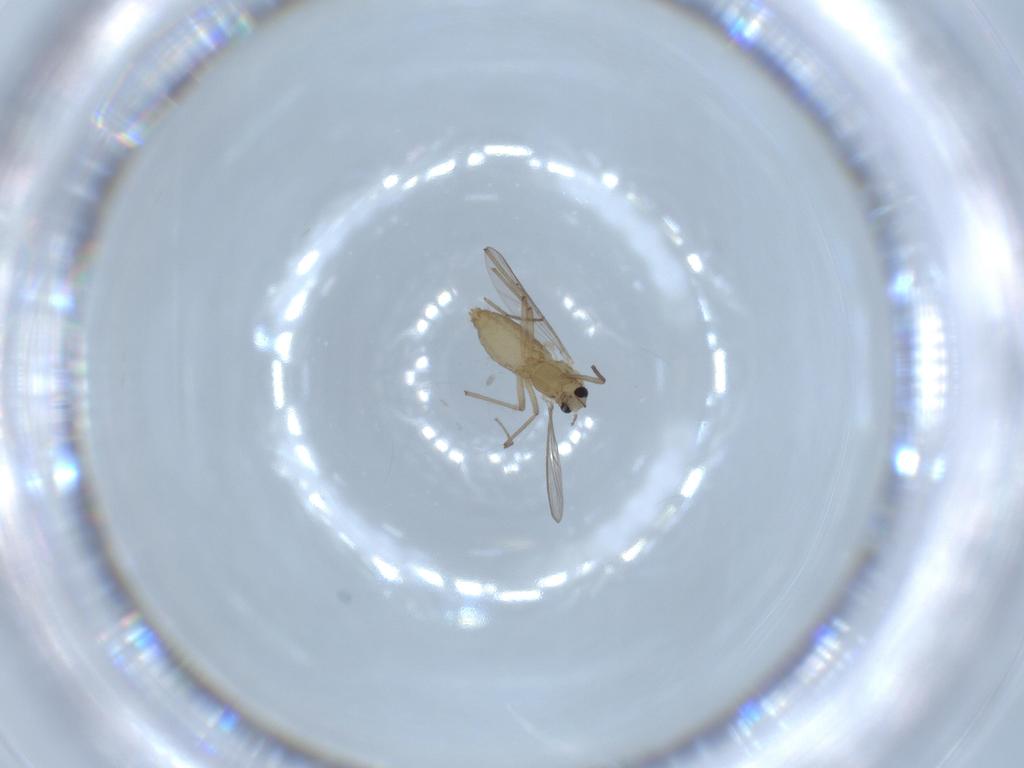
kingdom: Animalia
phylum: Arthropoda
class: Insecta
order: Diptera
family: Chironomidae
